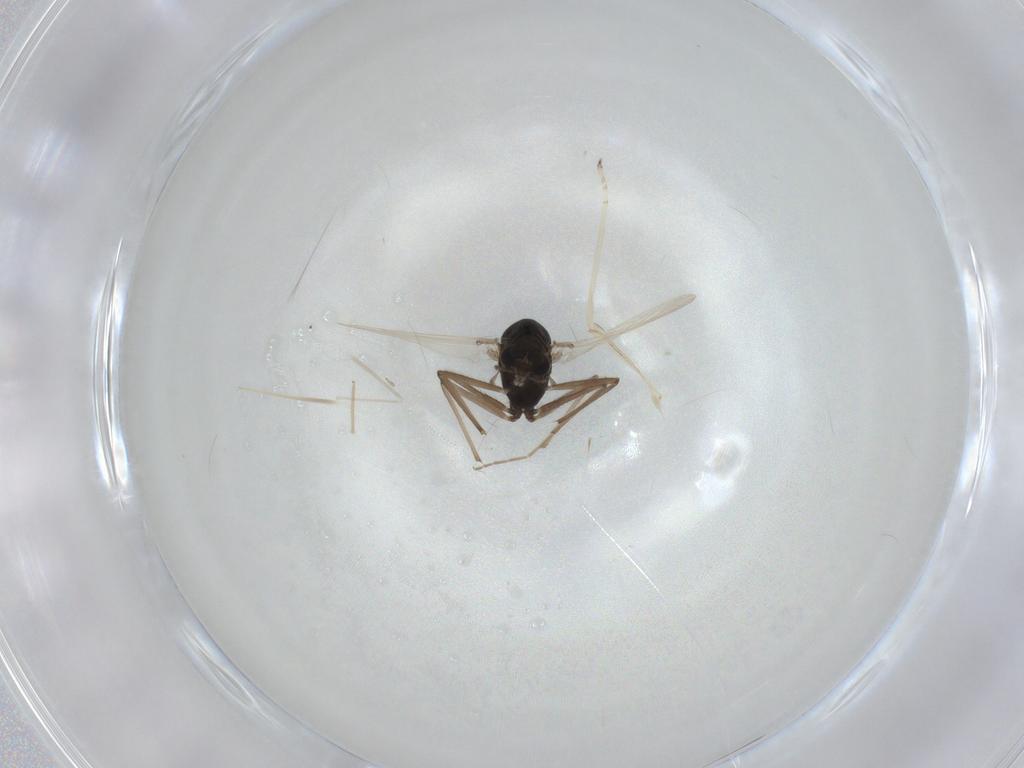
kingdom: Animalia
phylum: Arthropoda
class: Insecta
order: Diptera
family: Chironomidae
